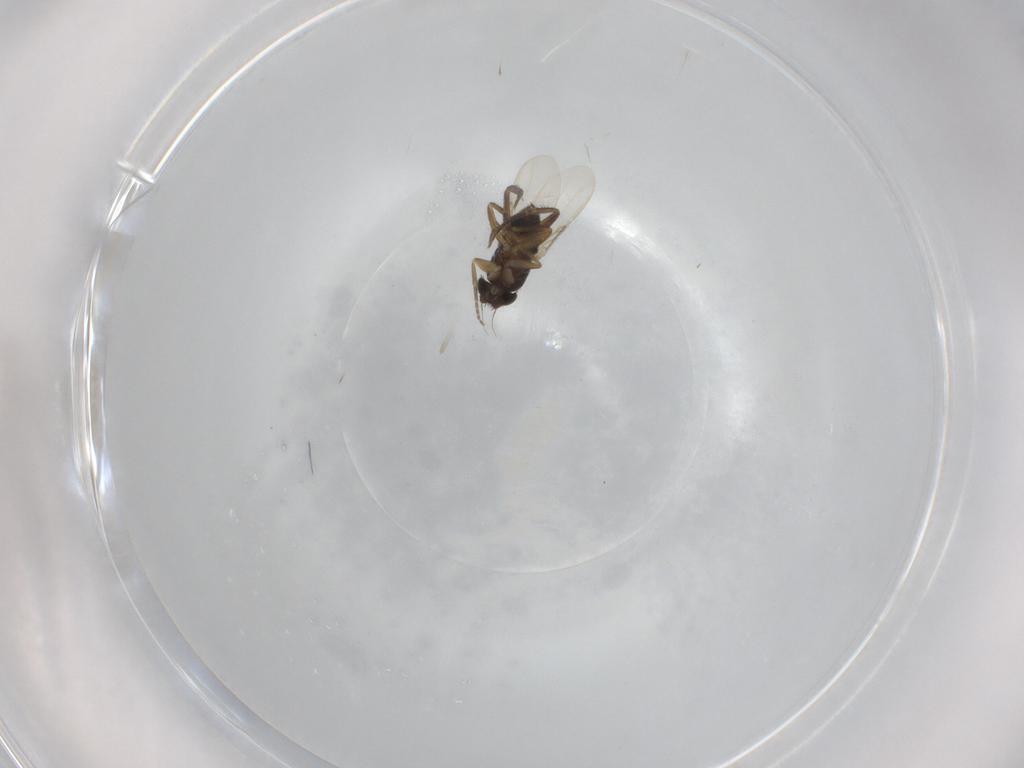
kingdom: Animalia
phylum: Arthropoda
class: Insecta
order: Diptera
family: Phoridae
